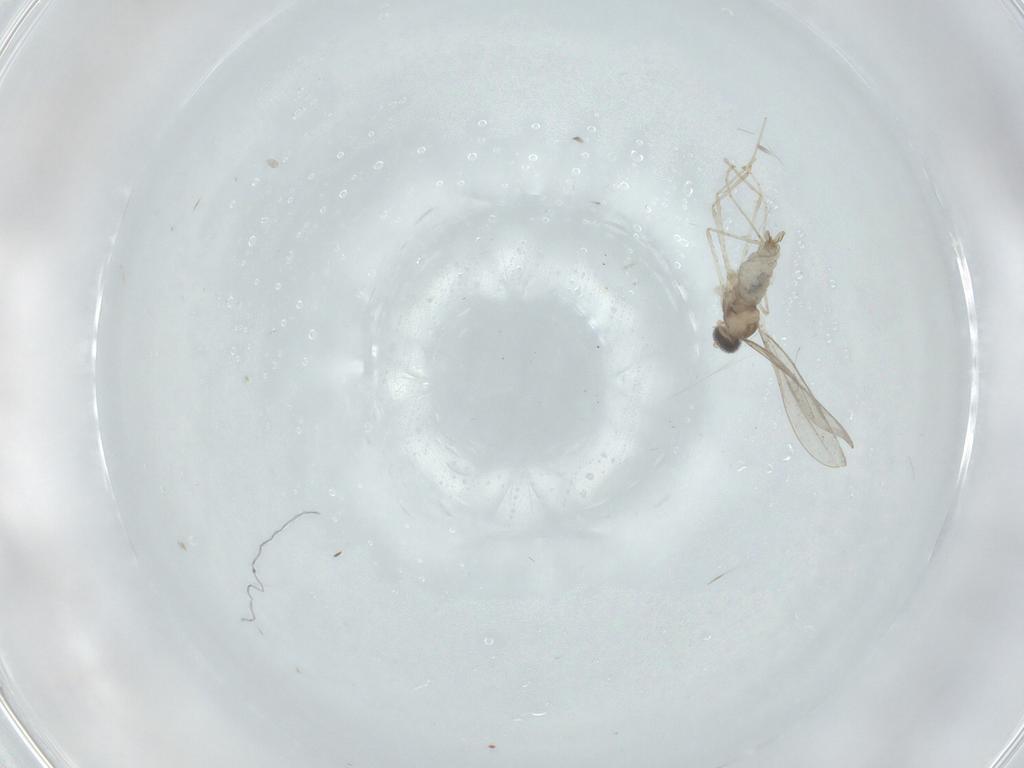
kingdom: Animalia
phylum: Arthropoda
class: Insecta
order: Diptera
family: Cecidomyiidae
